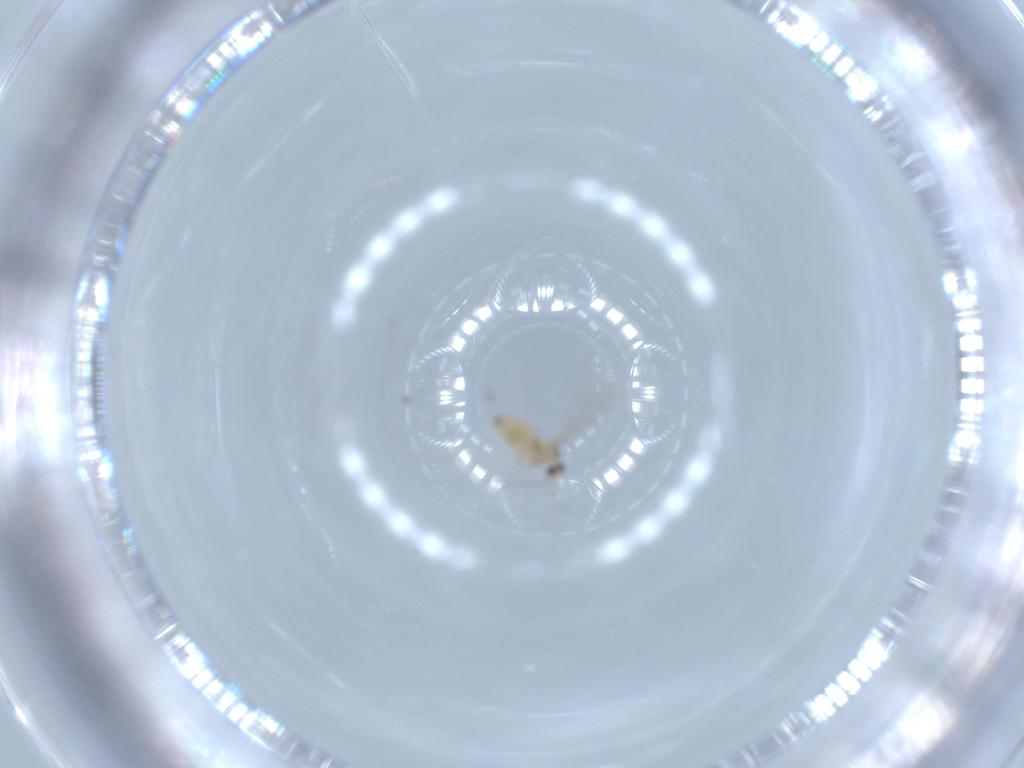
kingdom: Animalia
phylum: Arthropoda
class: Insecta
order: Diptera
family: Cecidomyiidae
